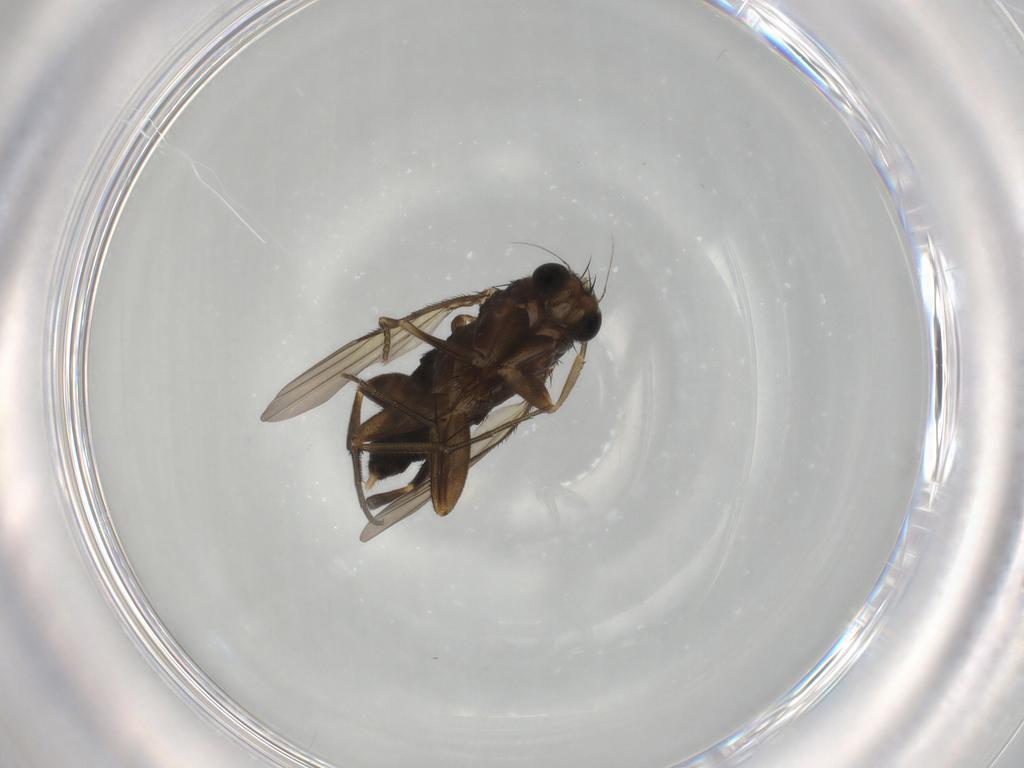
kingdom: Animalia
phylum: Arthropoda
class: Insecta
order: Diptera
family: Phoridae
